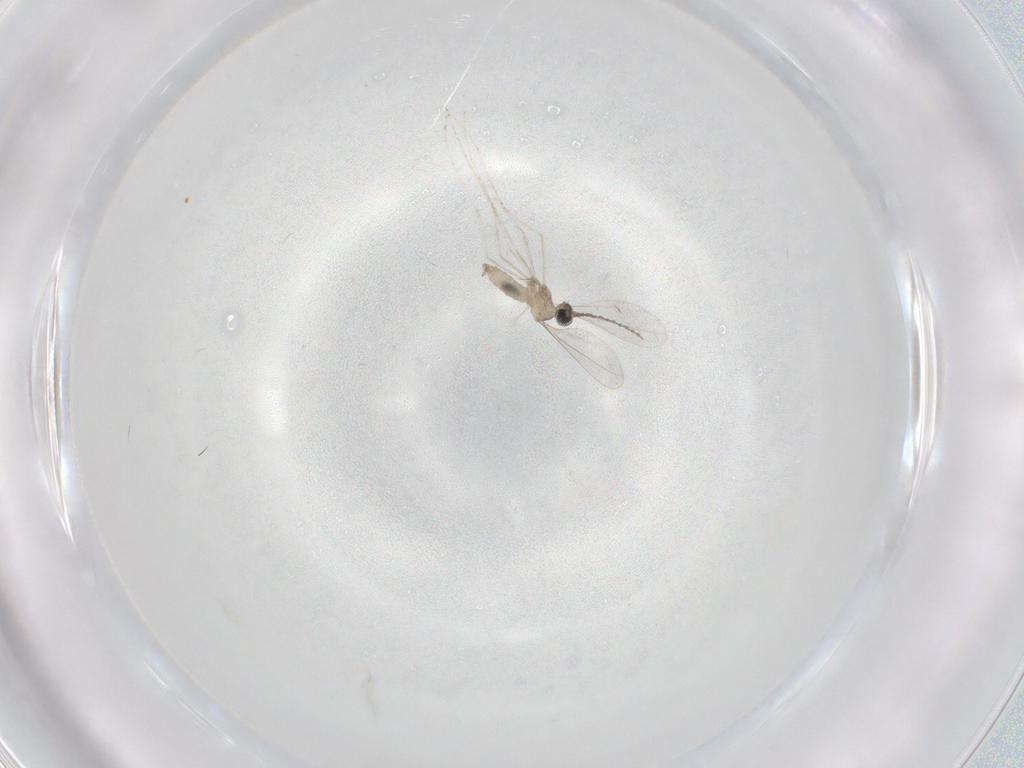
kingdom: Animalia
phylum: Arthropoda
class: Insecta
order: Diptera
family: Cecidomyiidae
